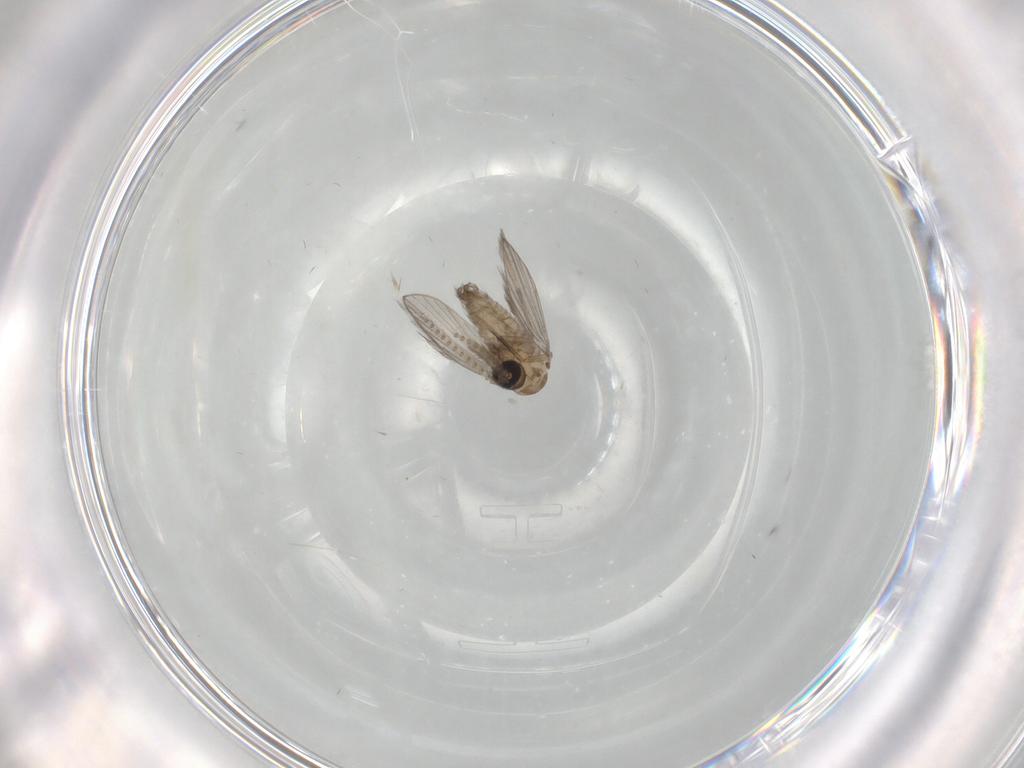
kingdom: Animalia
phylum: Arthropoda
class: Insecta
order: Diptera
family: Psychodidae
